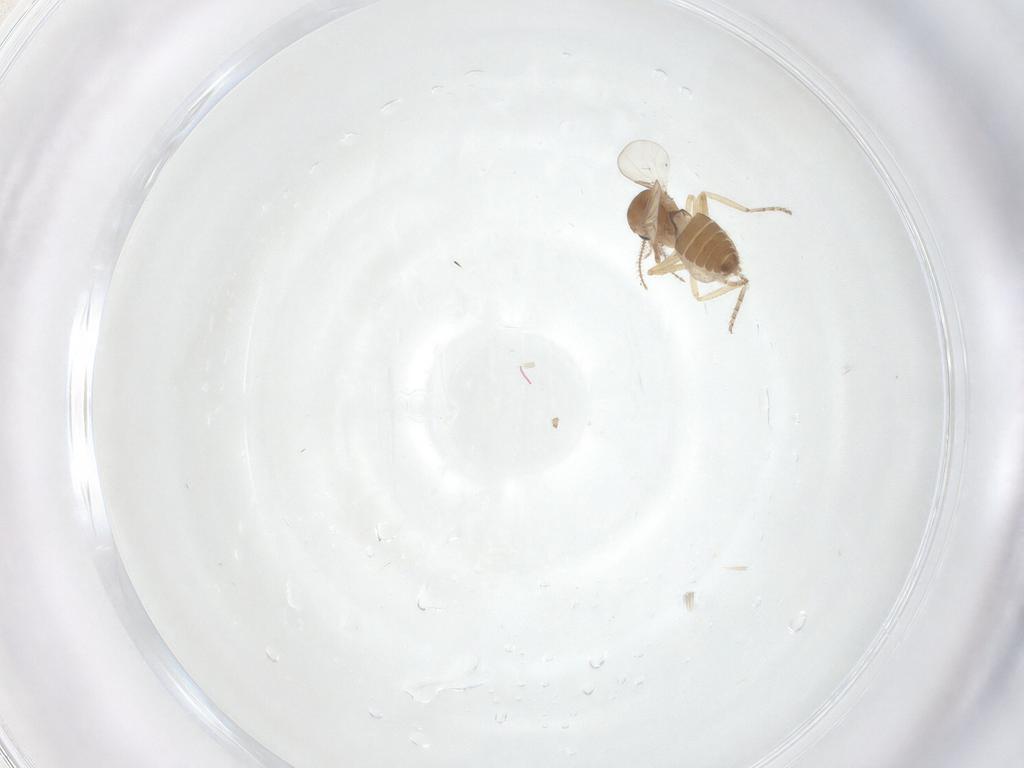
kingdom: Animalia
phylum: Arthropoda
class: Insecta
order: Diptera
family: Ceratopogonidae
